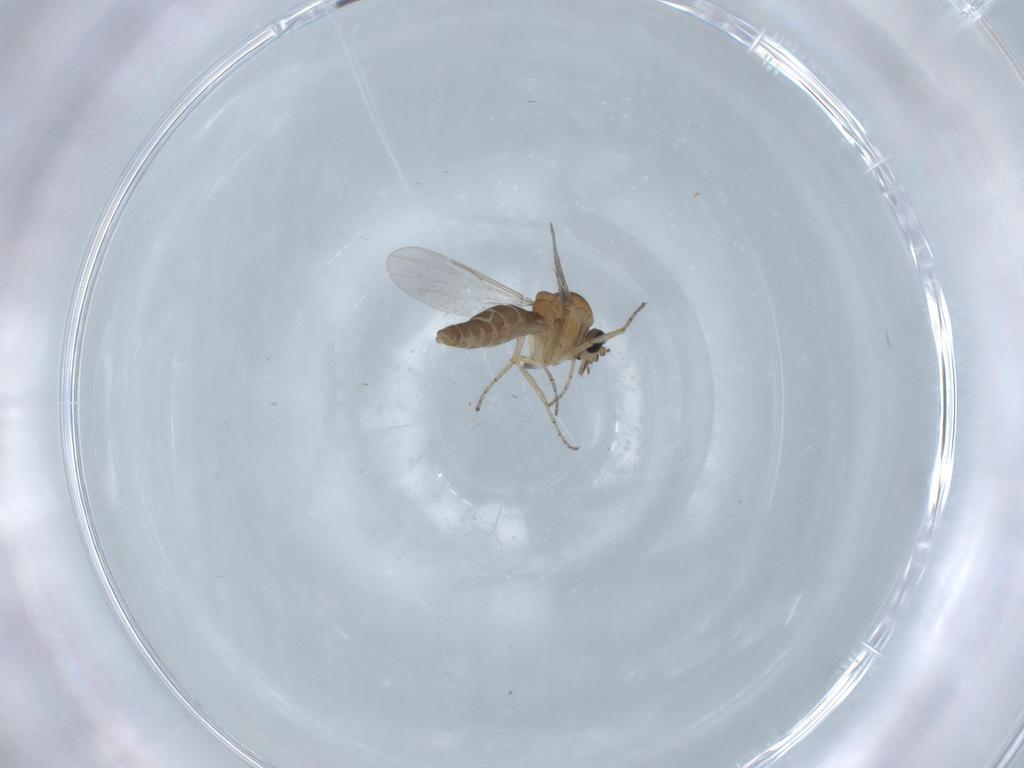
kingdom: Animalia
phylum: Arthropoda
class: Insecta
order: Diptera
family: Ceratopogonidae
